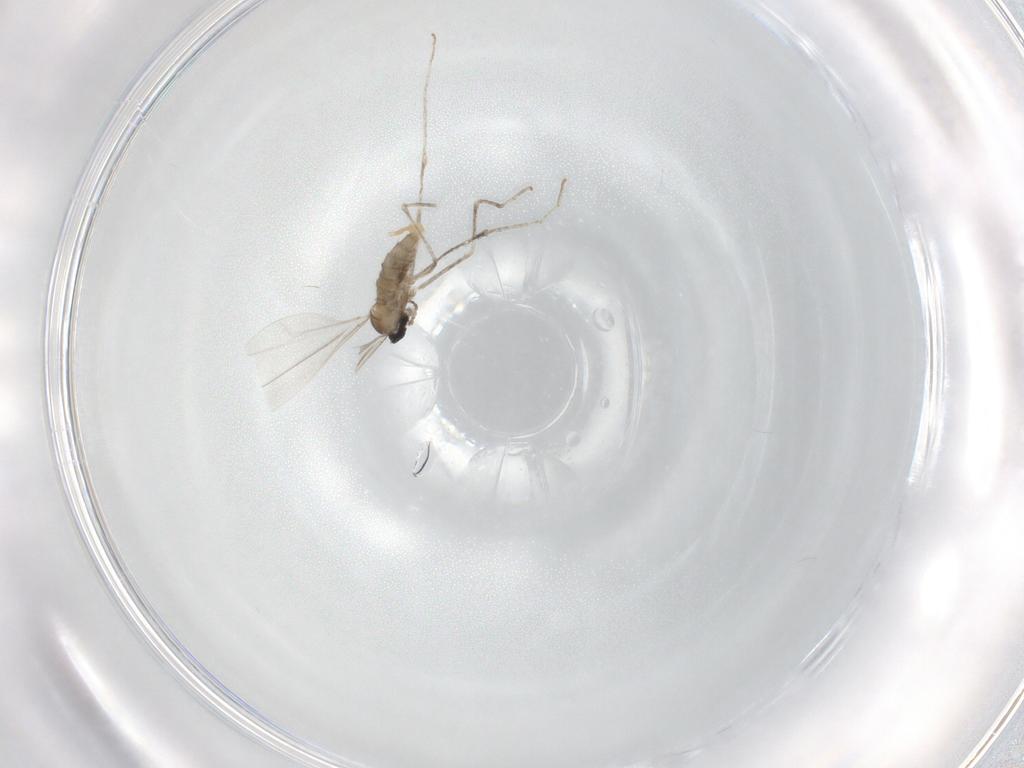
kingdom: Animalia
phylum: Arthropoda
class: Insecta
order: Diptera
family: Cecidomyiidae
